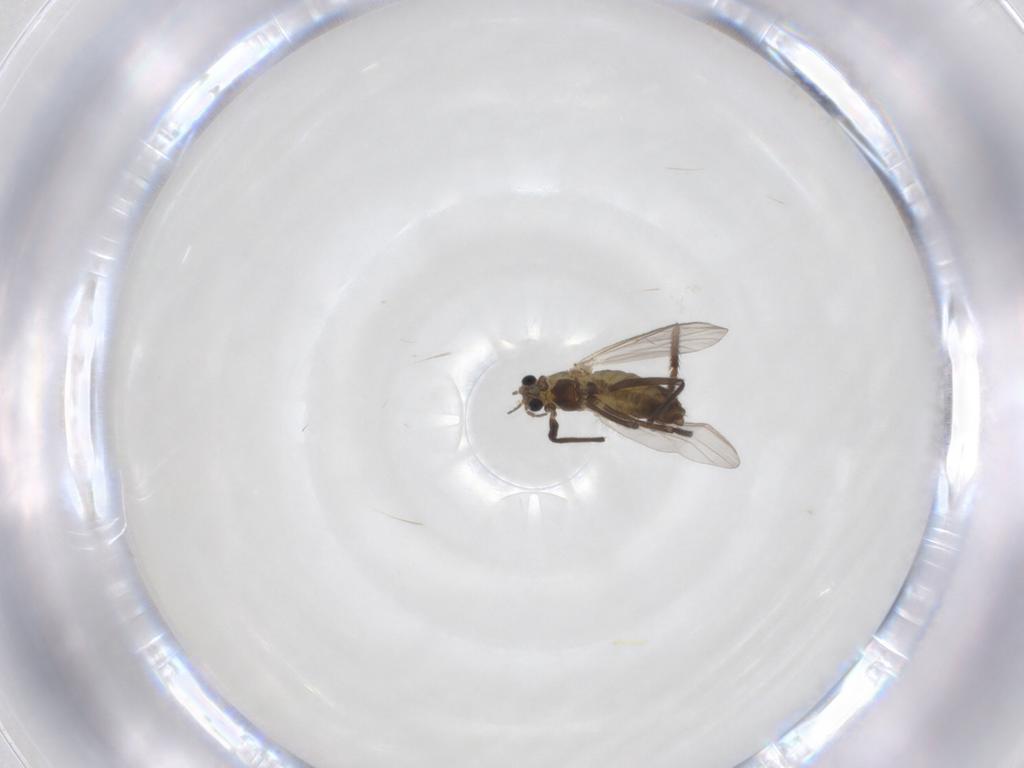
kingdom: Animalia
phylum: Arthropoda
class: Insecta
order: Diptera
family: Chironomidae
